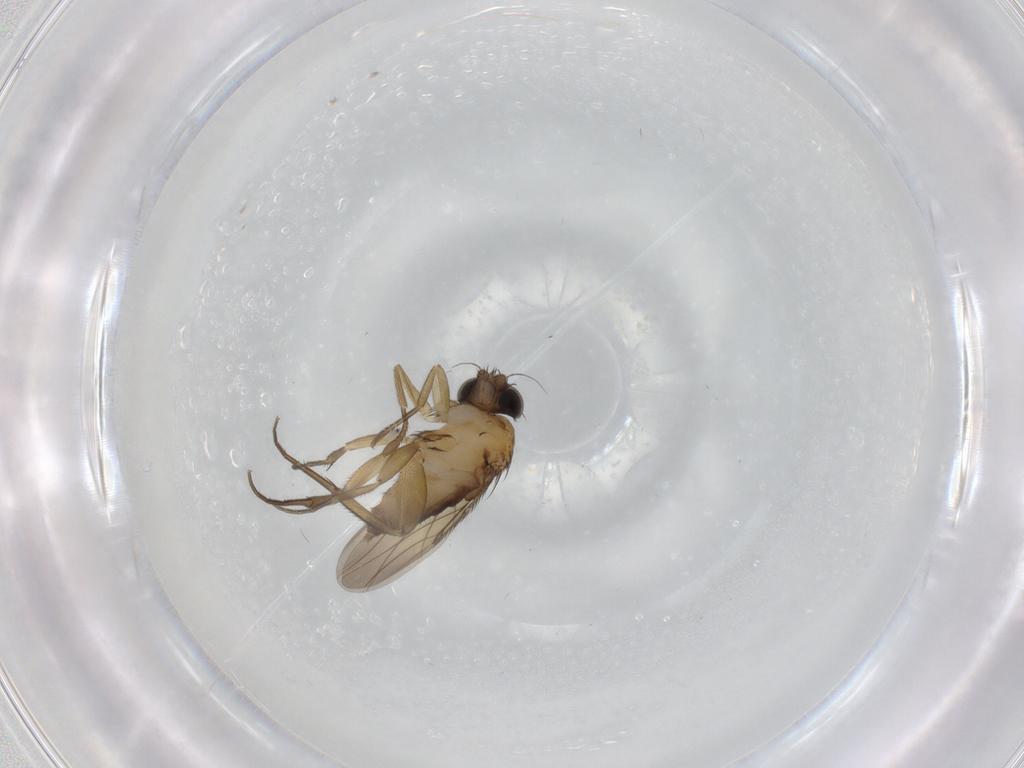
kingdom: Animalia
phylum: Arthropoda
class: Insecta
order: Diptera
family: Phoridae
